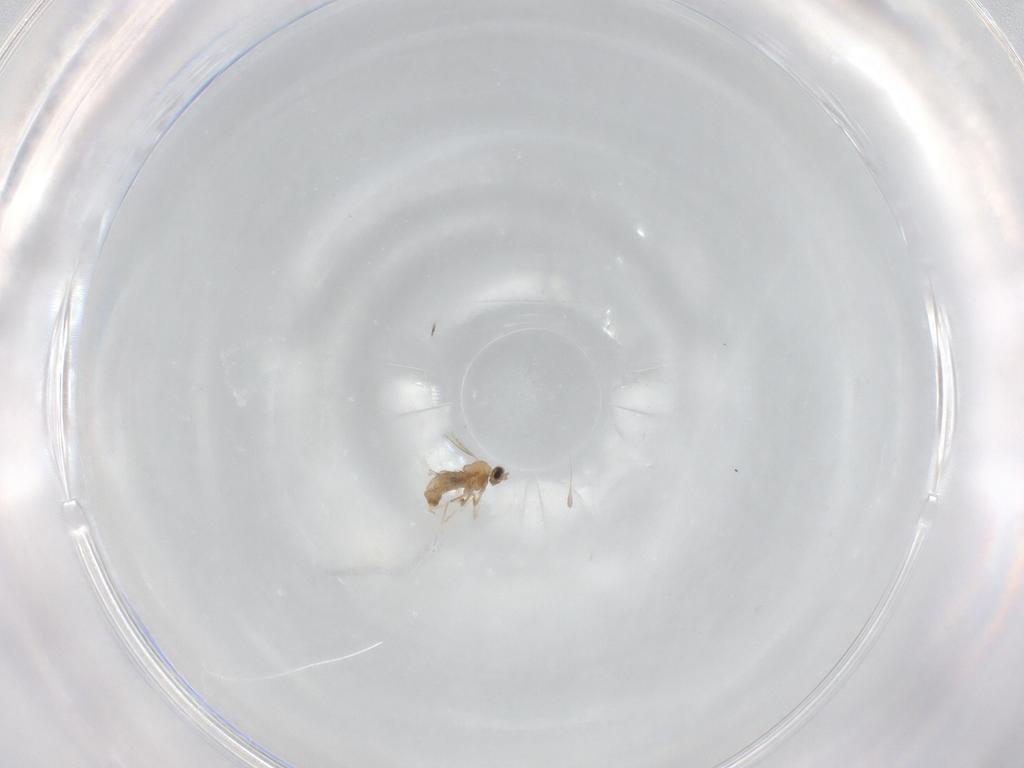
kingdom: Animalia
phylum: Arthropoda
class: Insecta
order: Diptera
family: Cecidomyiidae
